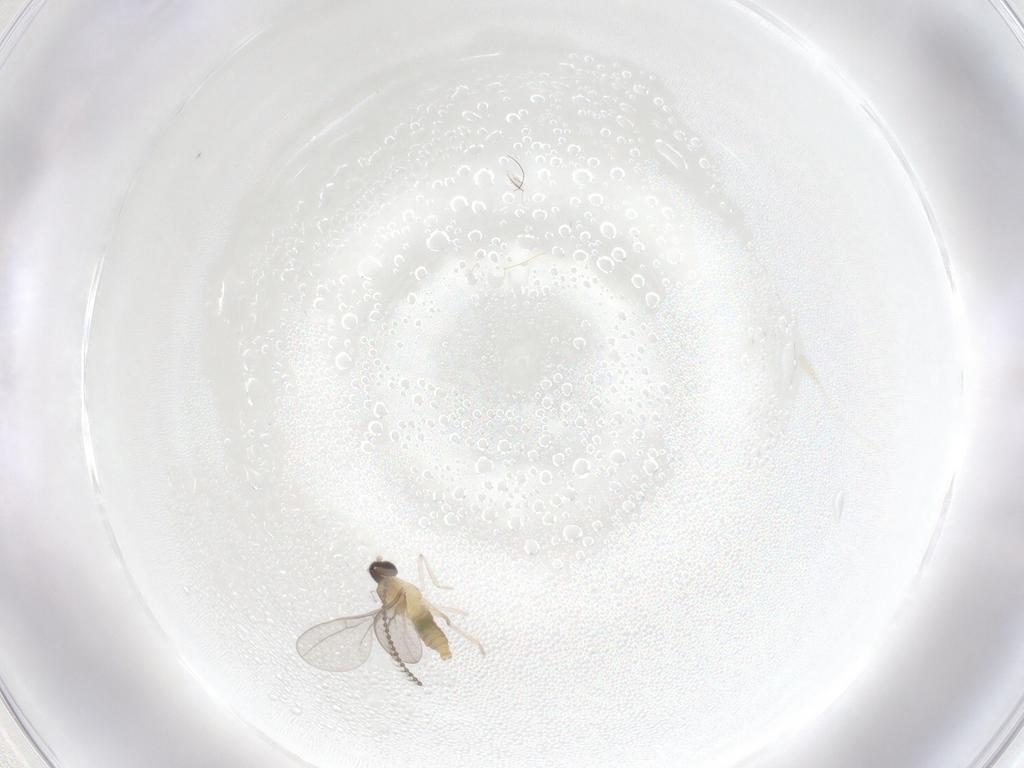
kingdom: Animalia
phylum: Arthropoda
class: Insecta
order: Diptera
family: Cecidomyiidae
